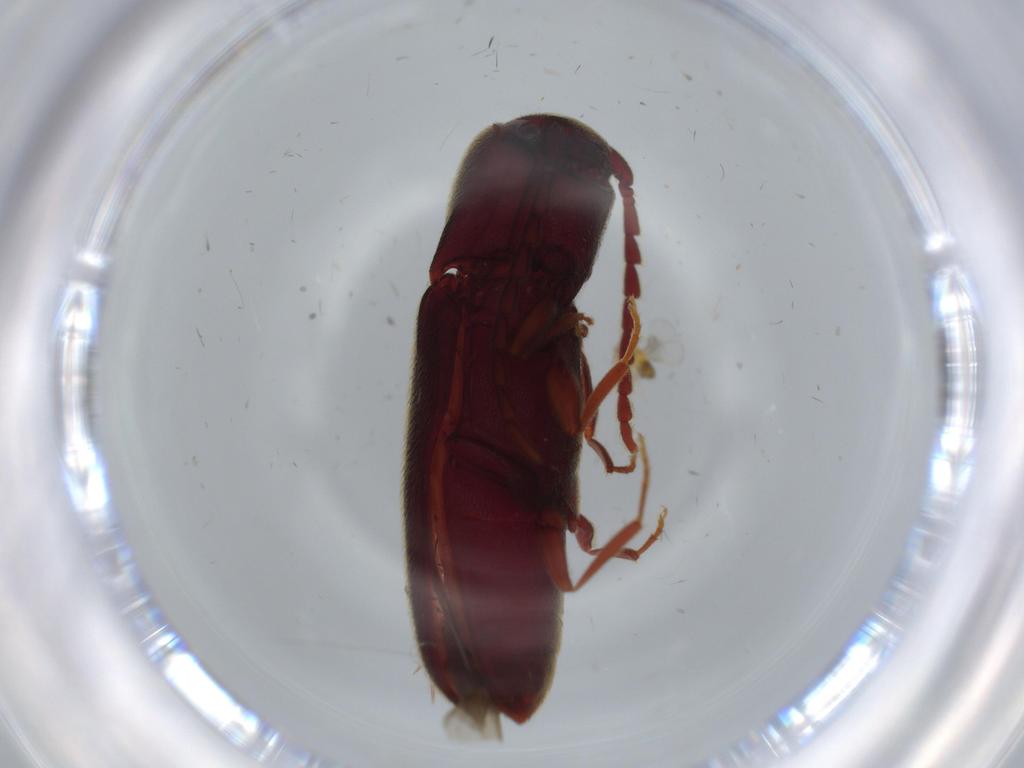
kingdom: Animalia
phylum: Arthropoda
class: Insecta
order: Coleoptera
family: Eucnemidae
